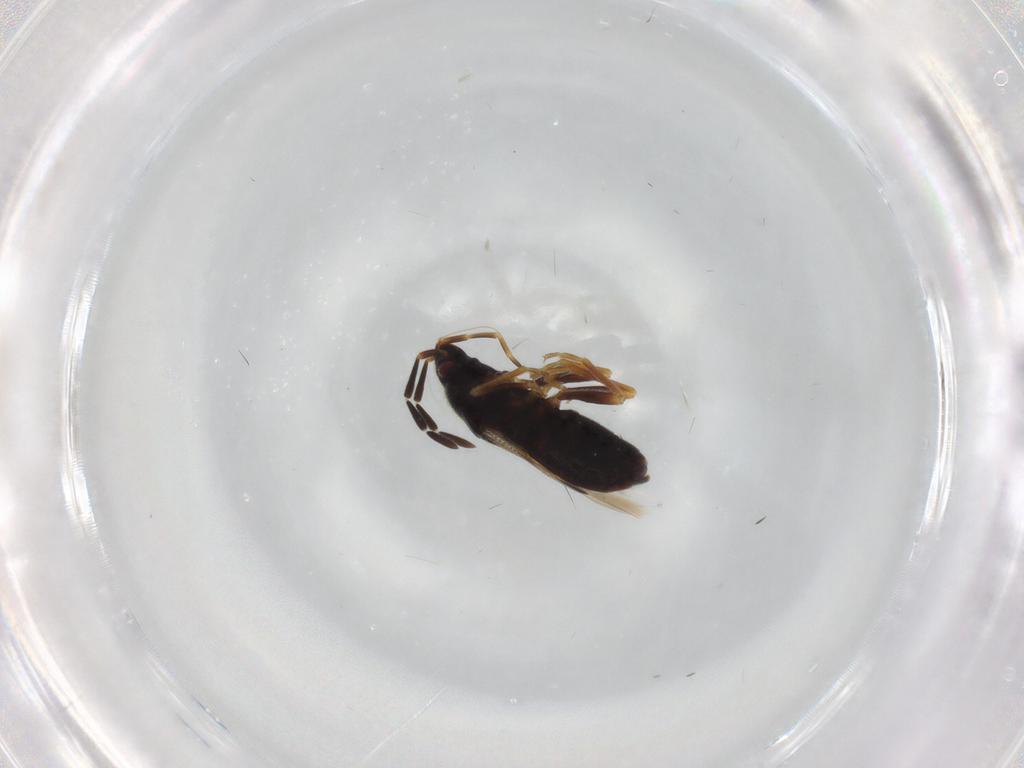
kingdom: Animalia
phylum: Arthropoda
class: Insecta
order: Hemiptera
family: Rhyparochromidae
